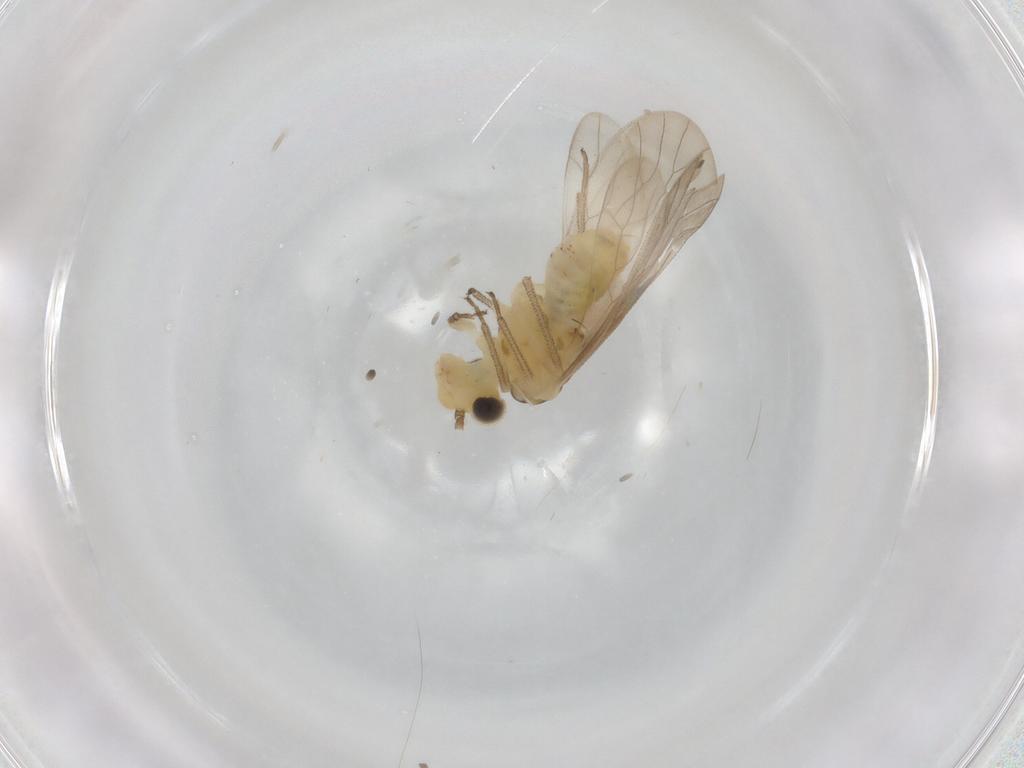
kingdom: Animalia
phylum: Arthropoda
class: Insecta
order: Psocodea
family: Caeciliusidae
